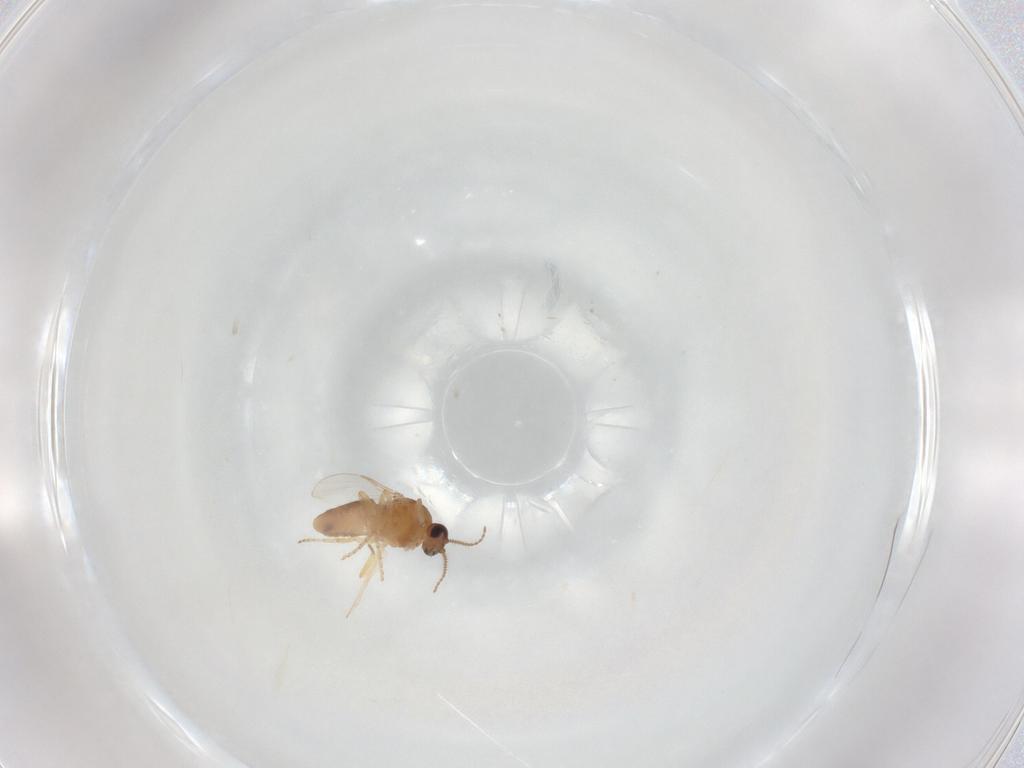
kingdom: Animalia
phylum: Arthropoda
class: Insecta
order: Diptera
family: Ceratopogonidae
